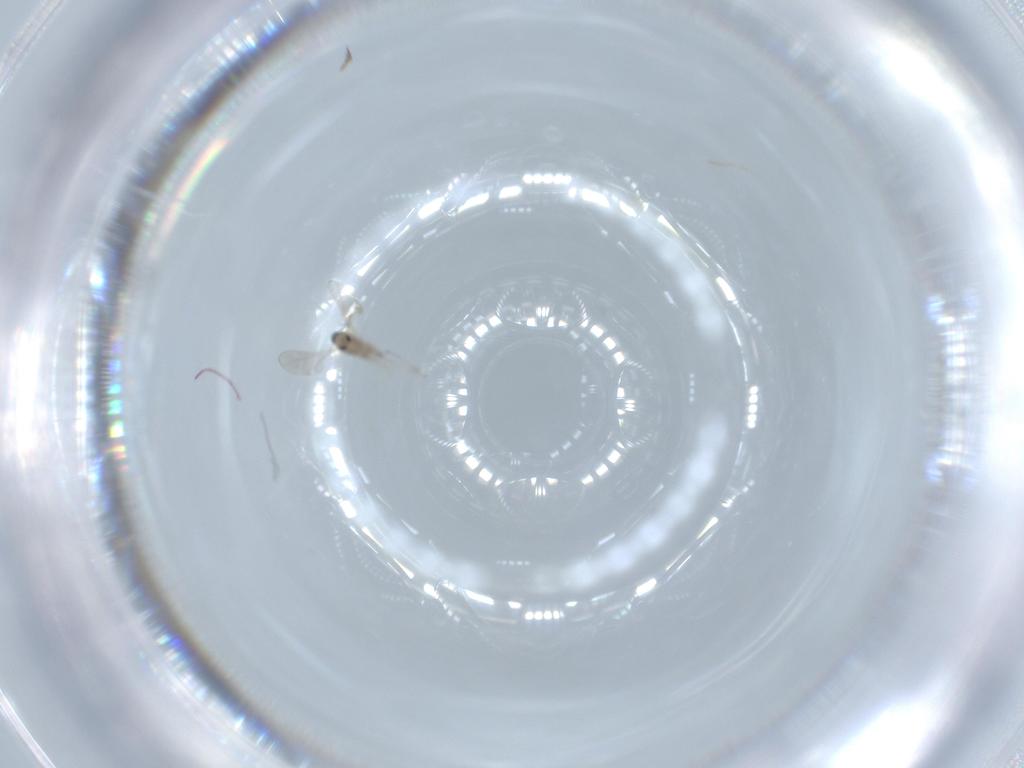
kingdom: Animalia
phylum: Arthropoda
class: Insecta
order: Diptera
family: Cecidomyiidae
